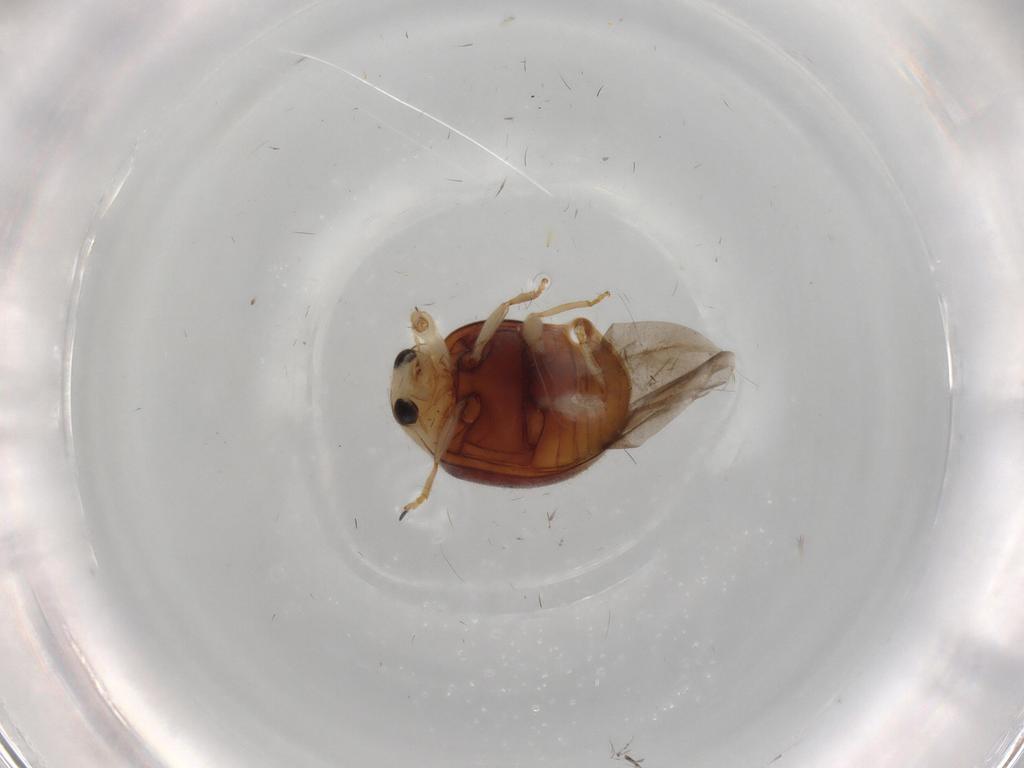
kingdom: Animalia
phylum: Arthropoda
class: Insecta
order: Coleoptera
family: Coccinellidae
